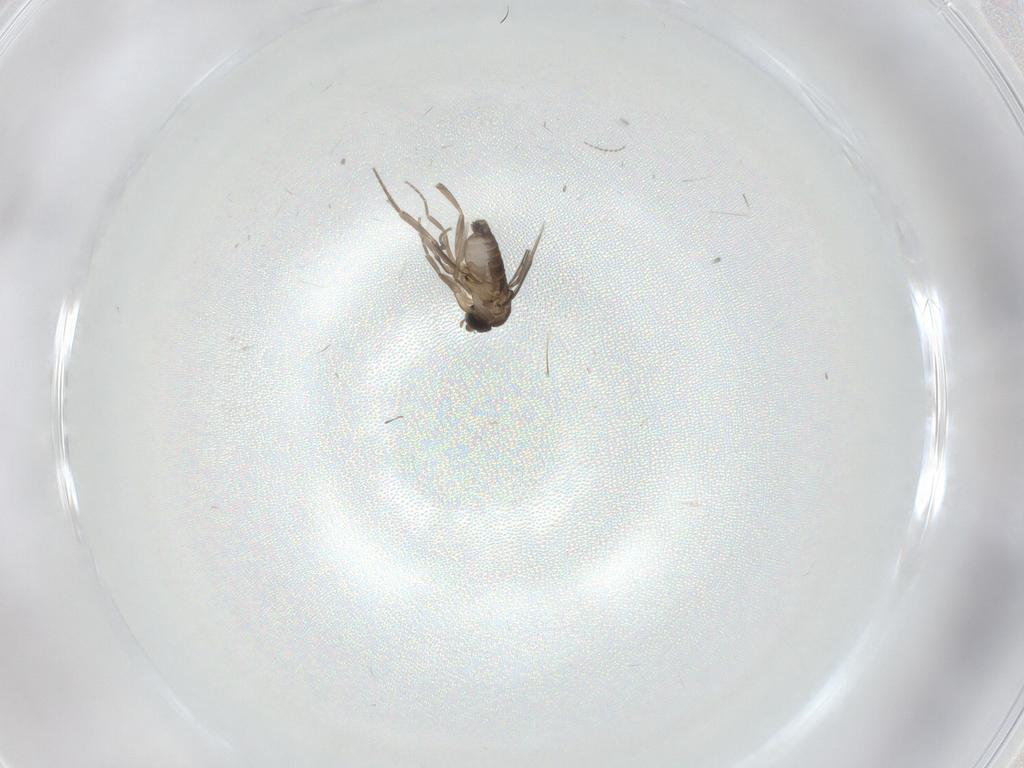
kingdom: Animalia
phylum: Arthropoda
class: Insecta
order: Diptera
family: Phoridae
